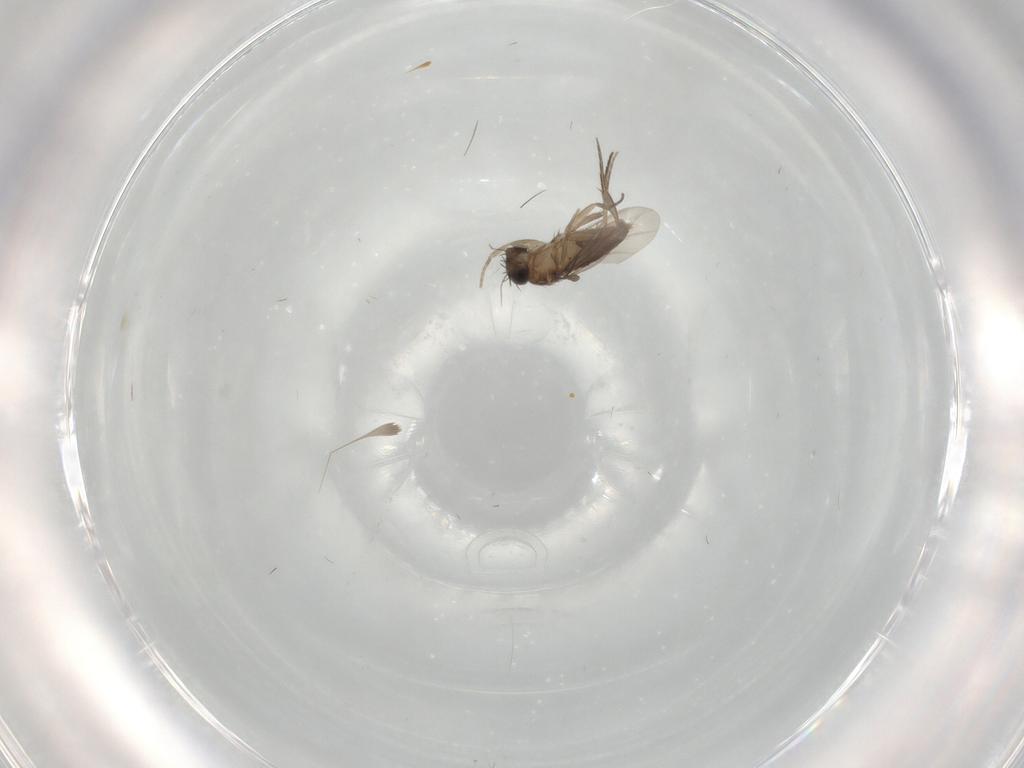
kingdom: Animalia
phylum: Arthropoda
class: Insecta
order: Diptera
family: Phoridae
